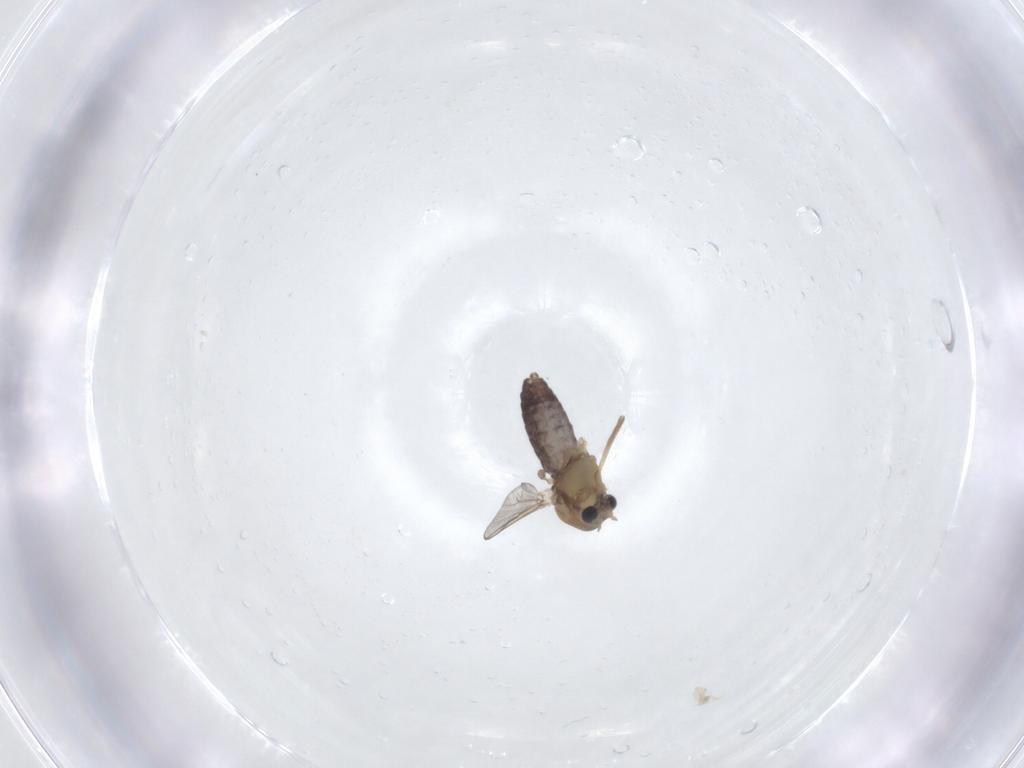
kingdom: Animalia
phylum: Arthropoda
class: Insecta
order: Diptera
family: Chironomidae
